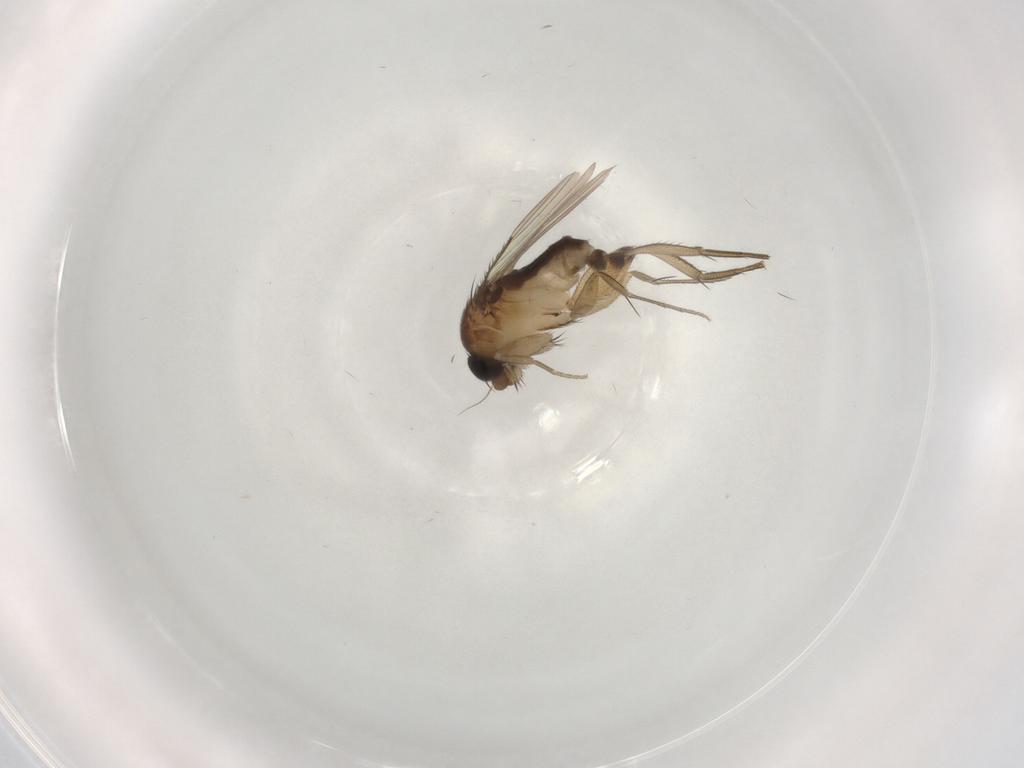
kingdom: Animalia
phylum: Arthropoda
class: Insecta
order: Diptera
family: Phoridae
